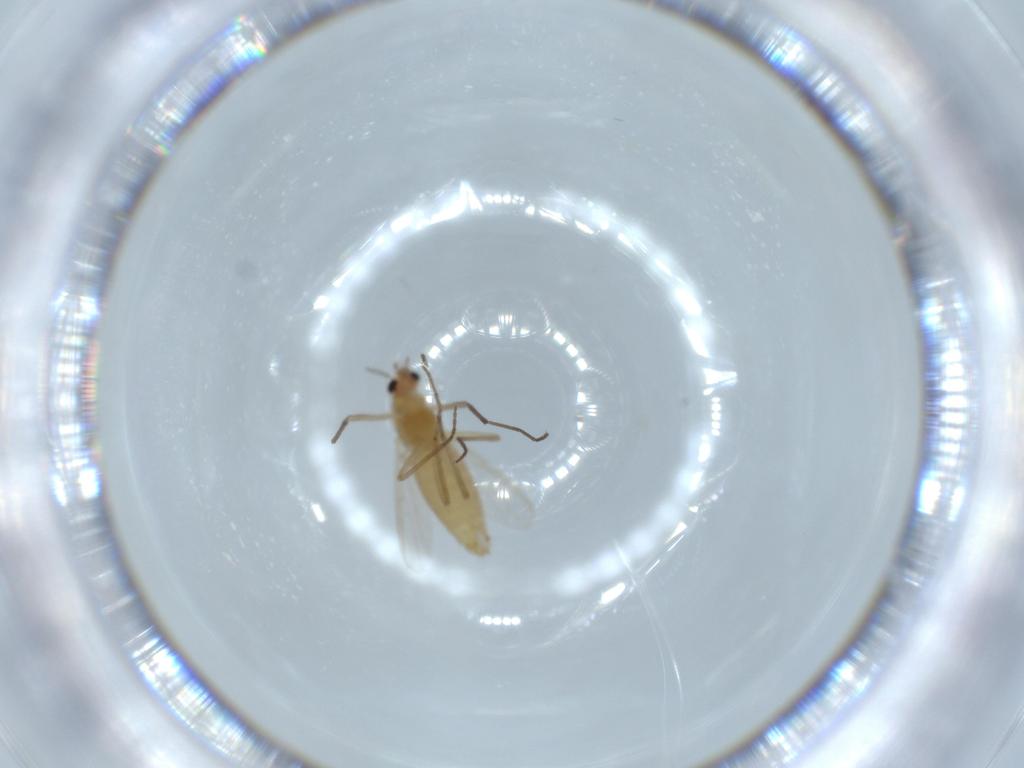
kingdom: Animalia
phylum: Arthropoda
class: Insecta
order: Diptera
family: Chironomidae
